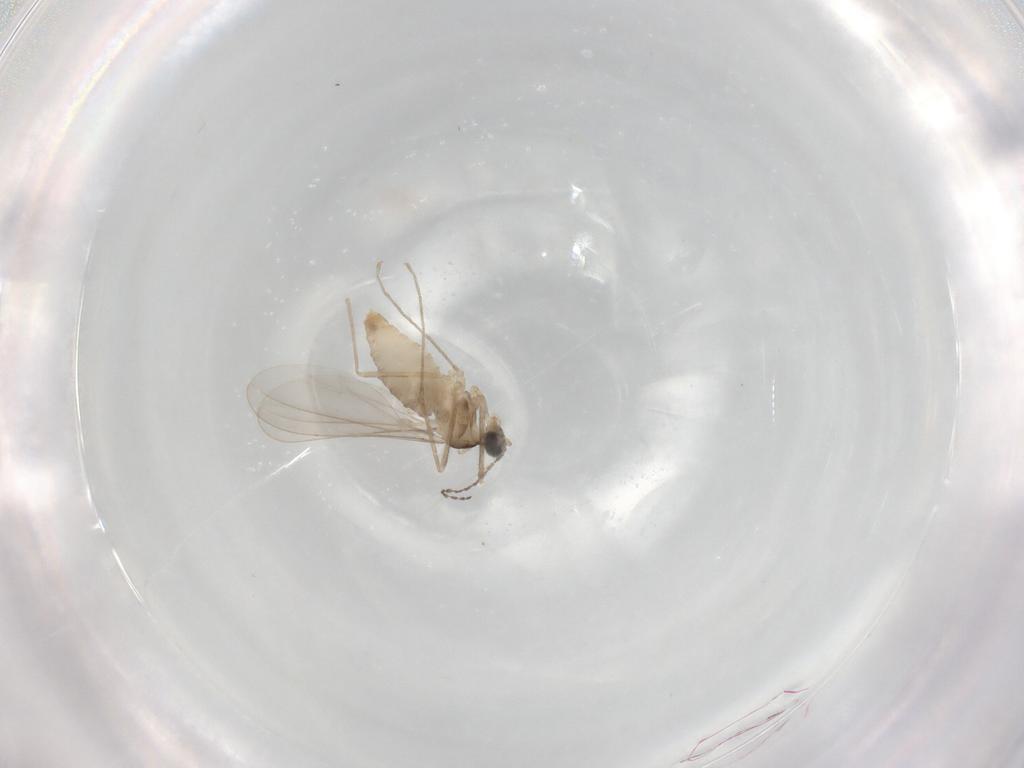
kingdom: Animalia
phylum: Arthropoda
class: Insecta
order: Diptera
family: Cecidomyiidae
